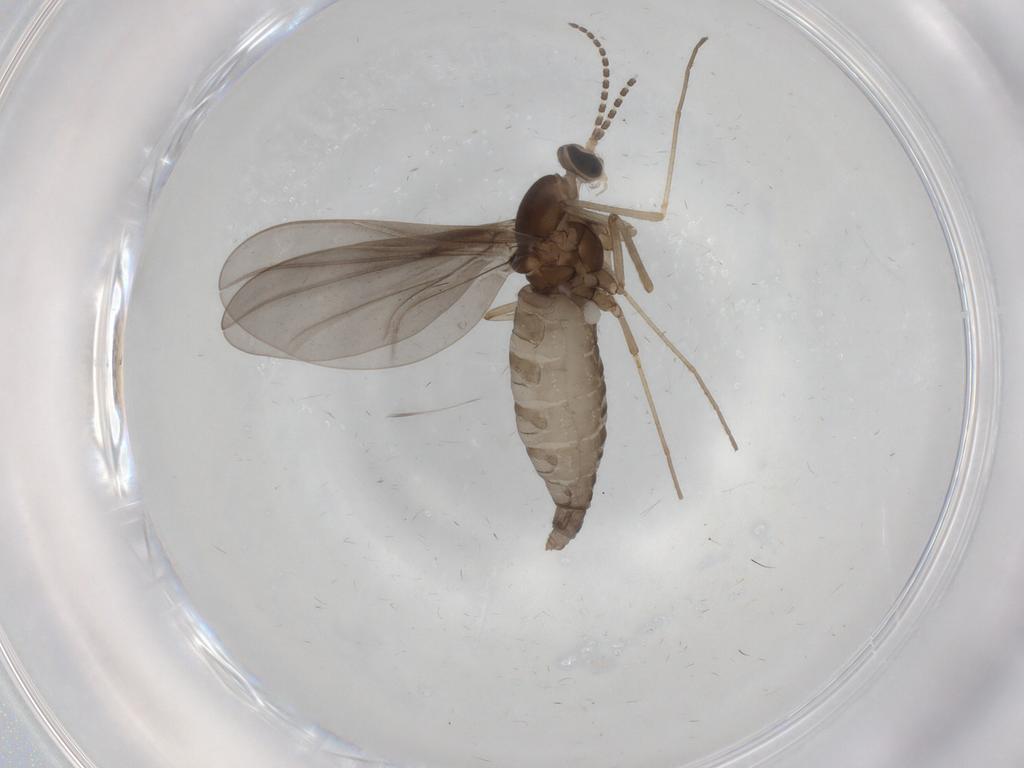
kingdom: Animalia
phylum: Arthropoda
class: Insecta
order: Diptera
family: Cecidomyiidae
